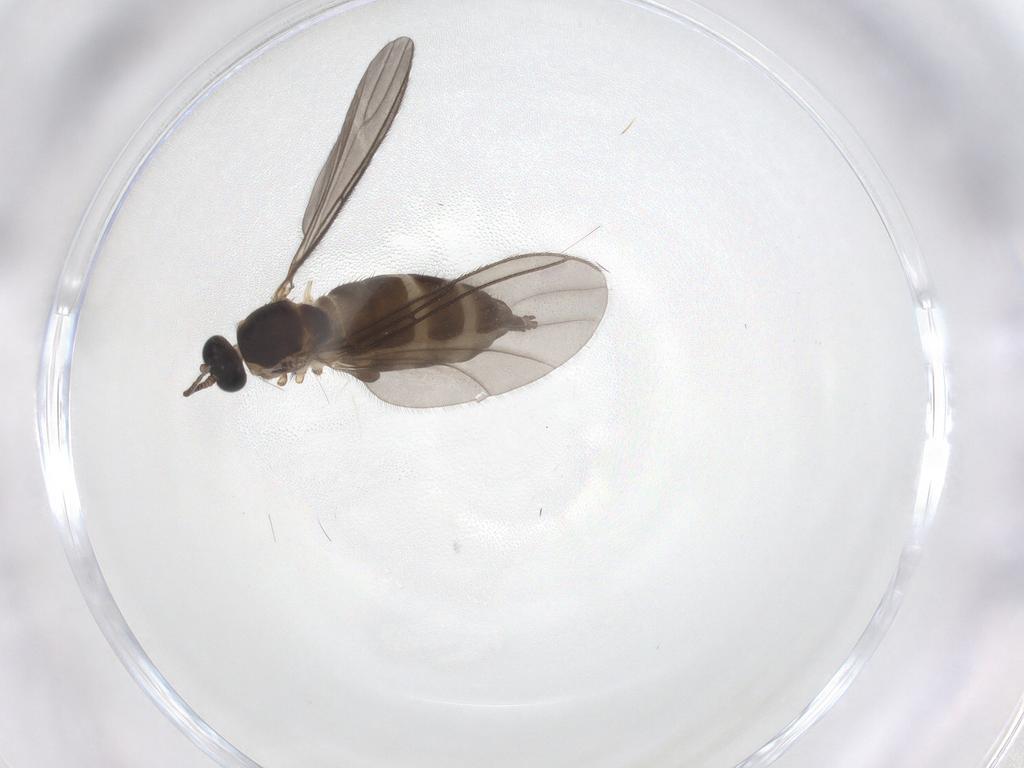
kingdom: Animalia
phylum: Arthropoda
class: Insecta
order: Diptera
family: Sciaridae
